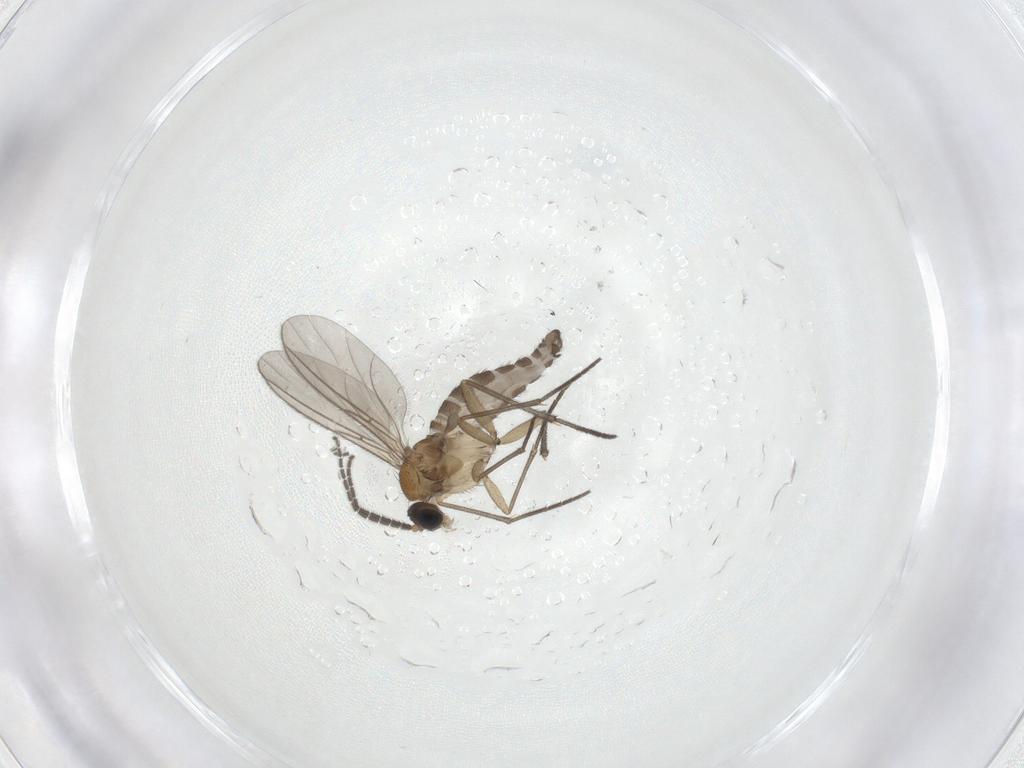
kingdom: Animalia
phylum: Arthropoda
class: Insecta
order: Diptera
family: Sciaridae
